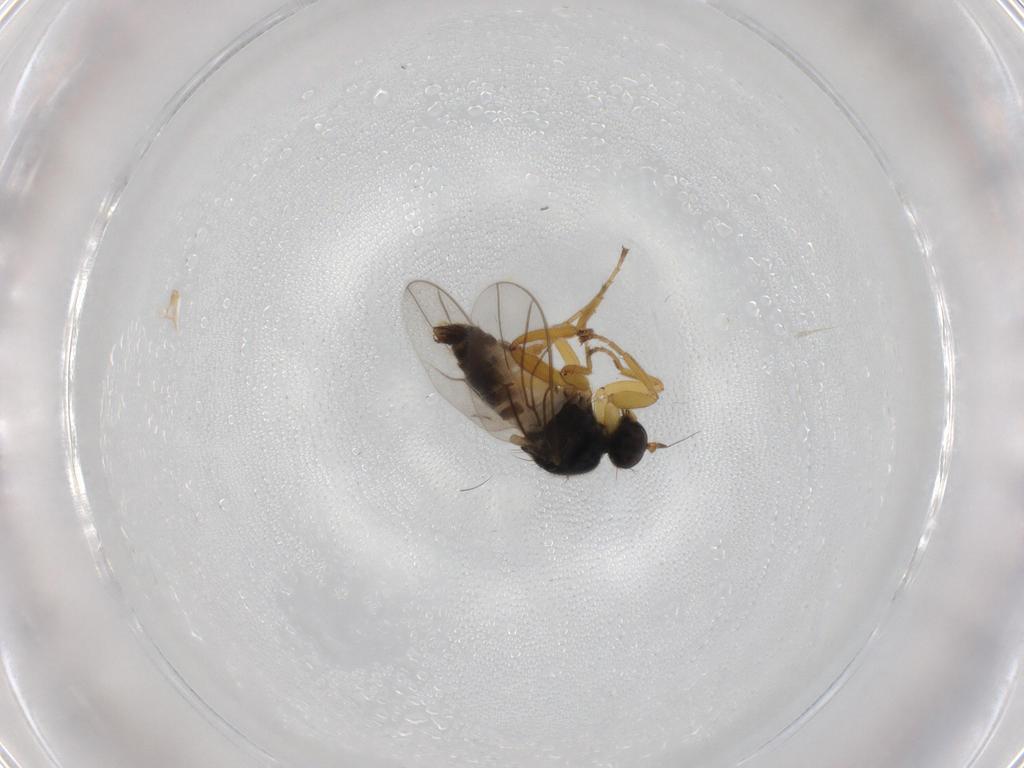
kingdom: Animalia
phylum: Arthropoda
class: Insecta
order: Diptera
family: Hybotidae
